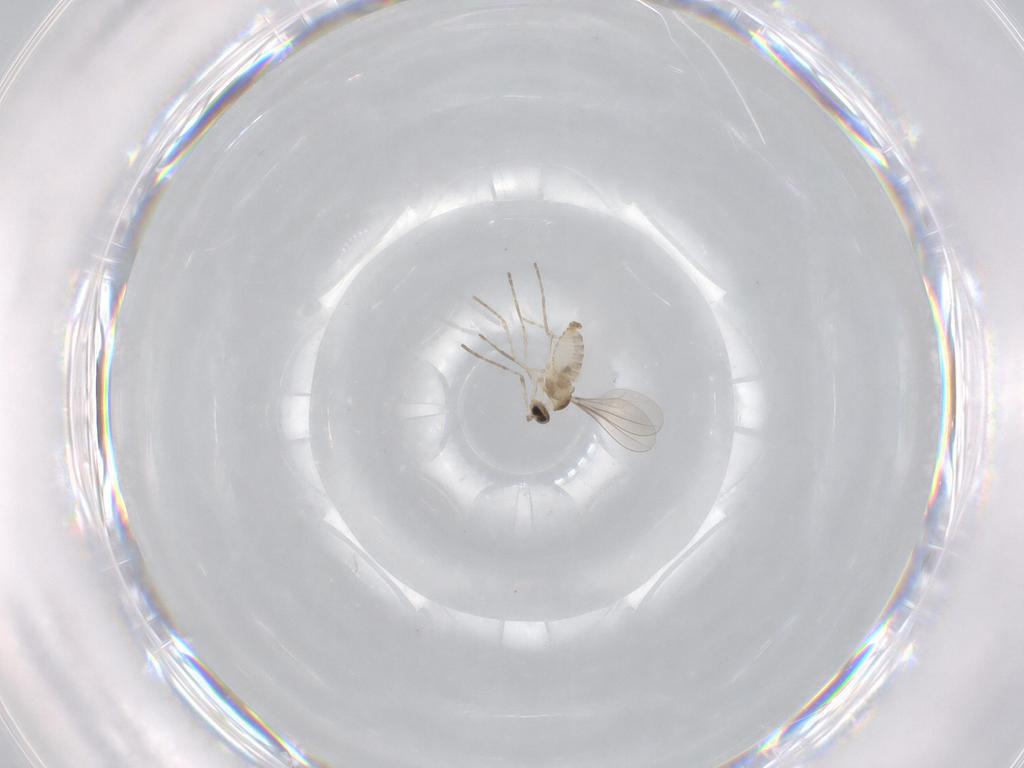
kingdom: Animalia
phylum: Arthropoda
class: Insecta
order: Diptera
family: Cecidomyiidae
